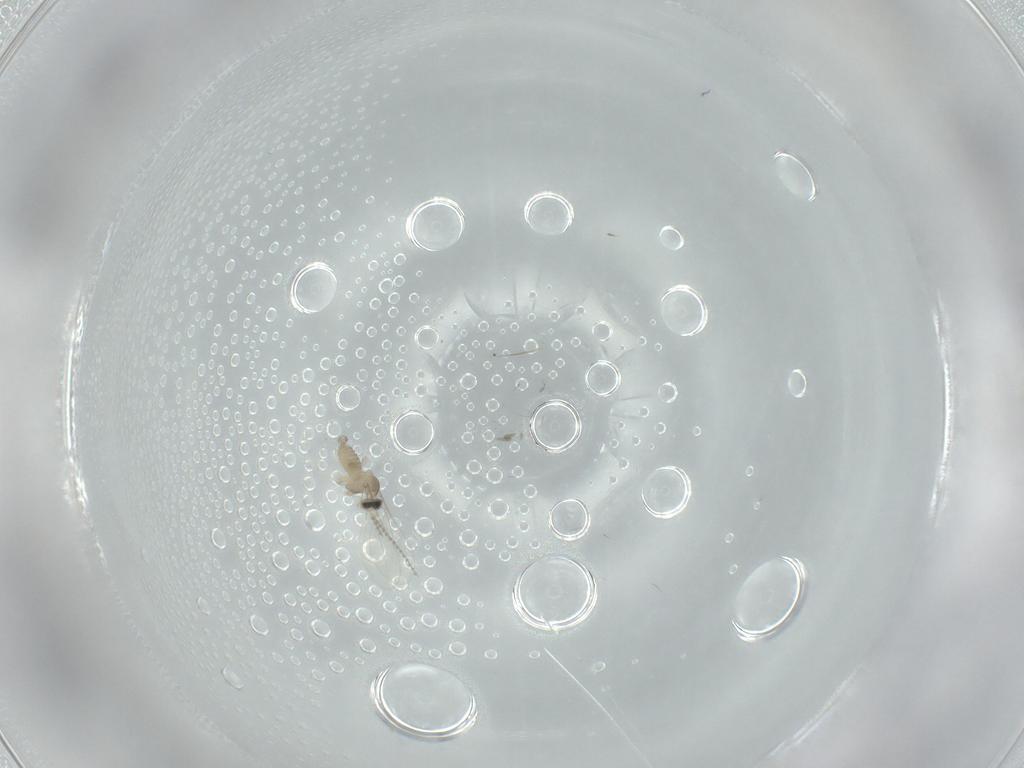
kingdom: Animalia
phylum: Arthropoda
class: Insecta
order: Diptera
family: Cecidomyiidae
